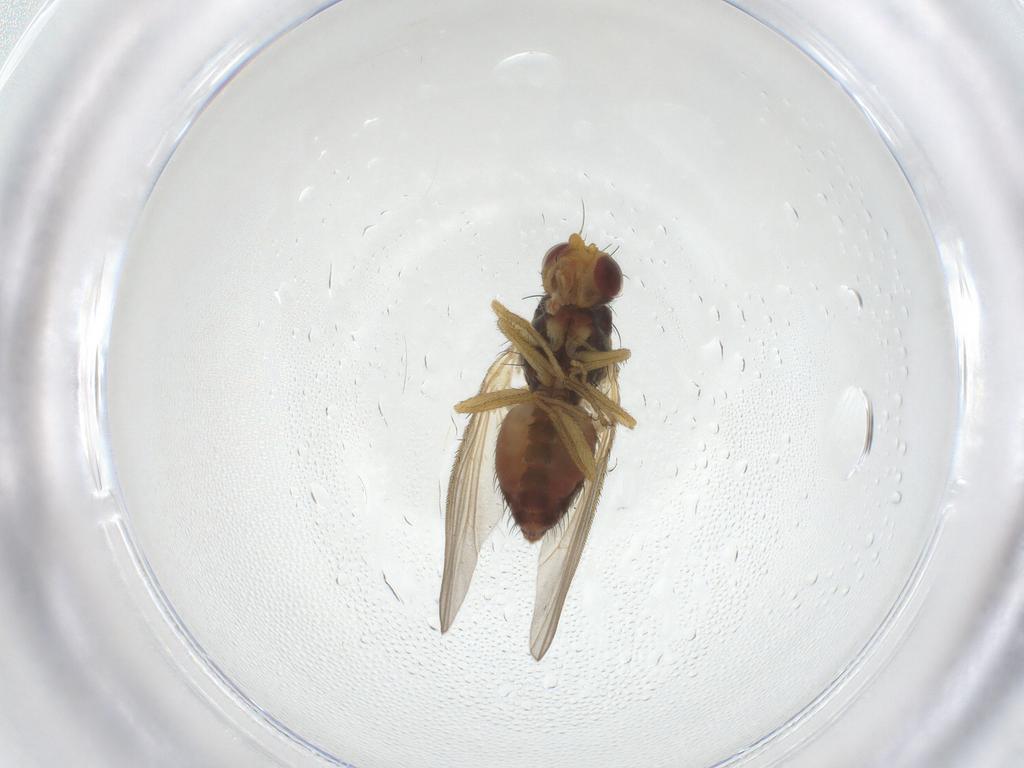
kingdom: Animalia
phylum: Arthropoda
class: Insecta
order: Diptera
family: Heleomyzidae
